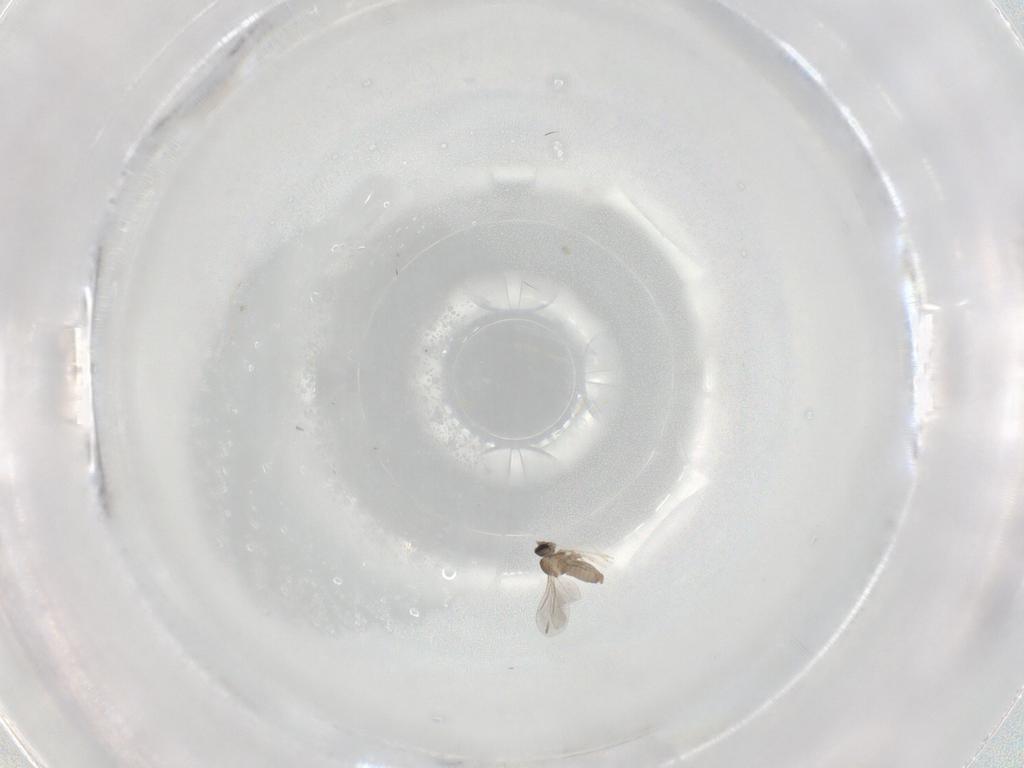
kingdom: Animalia
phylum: Arthropoda
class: Insecta
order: Diptera
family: Cecidomyiidae
